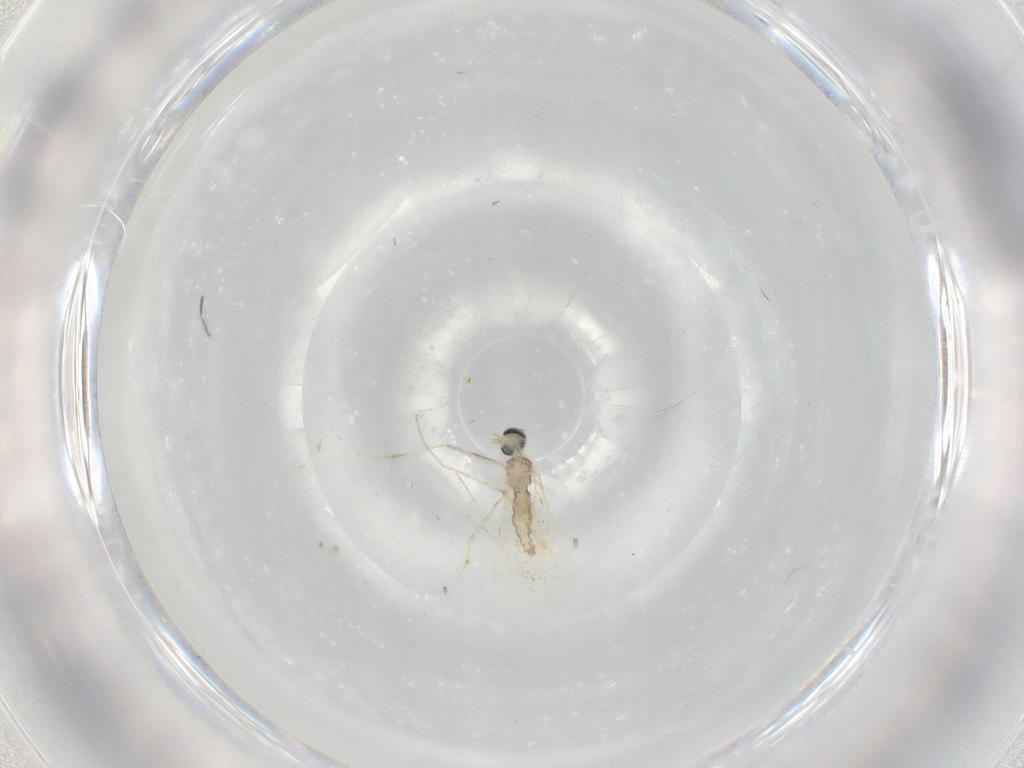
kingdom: Animalia
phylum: Arthropoda
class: Insecta
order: Diptera
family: Cecidomyiidae
